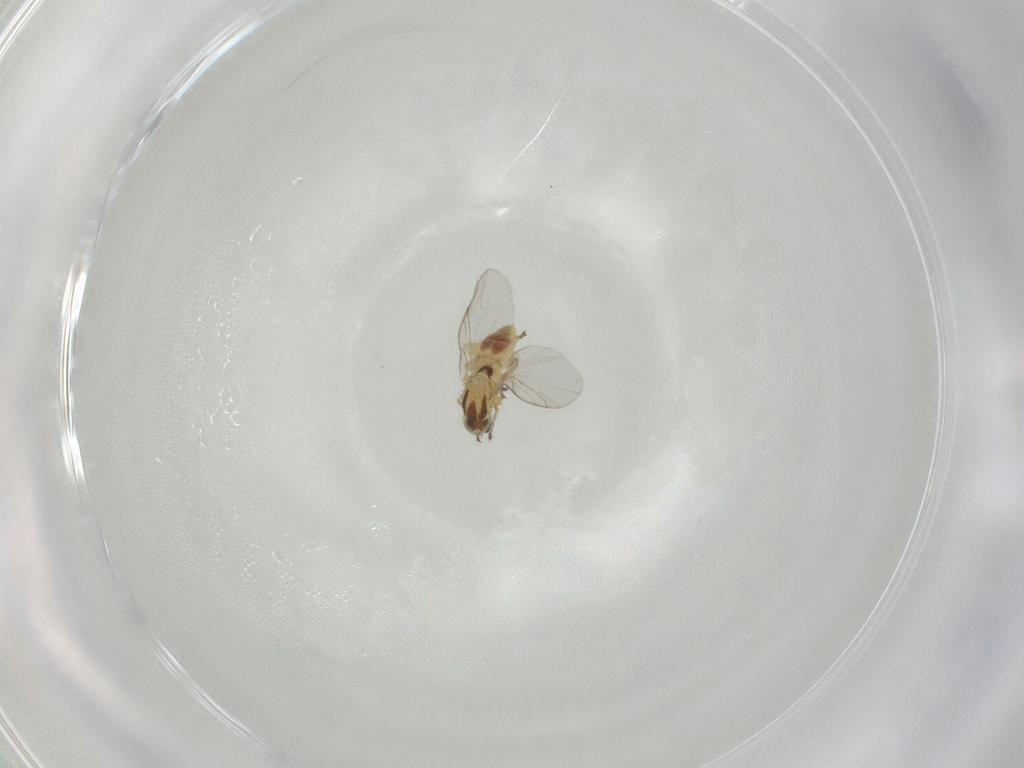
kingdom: Animalia
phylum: Arthropoda
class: Insecta
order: Diptera
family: Agromyzidae
